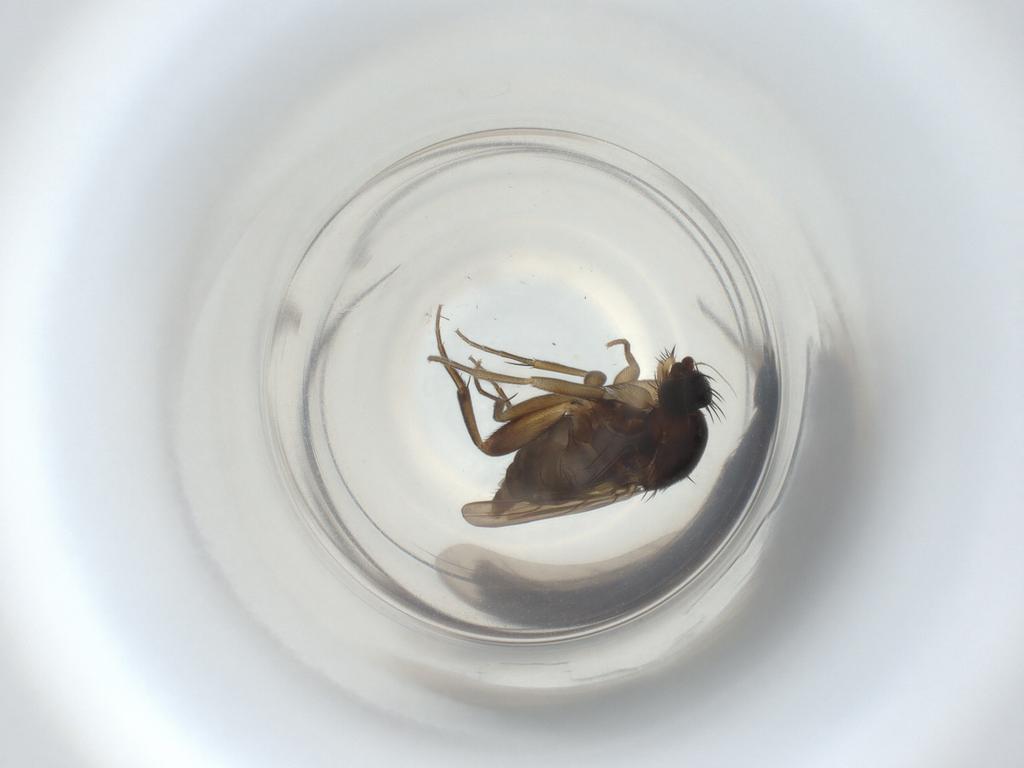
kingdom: Animalia
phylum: Arthropoda
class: Insecta
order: Diptera
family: Phoridae
